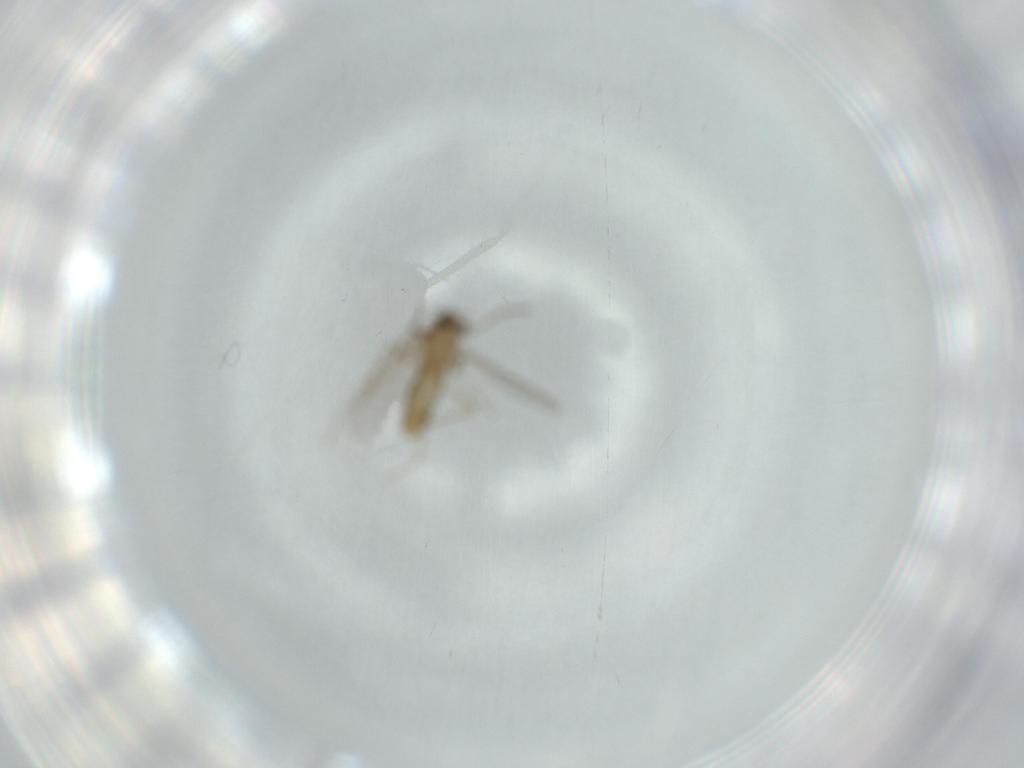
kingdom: Animalia
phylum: Arthropoda
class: Insecta
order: Diptera
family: Chironomidae
